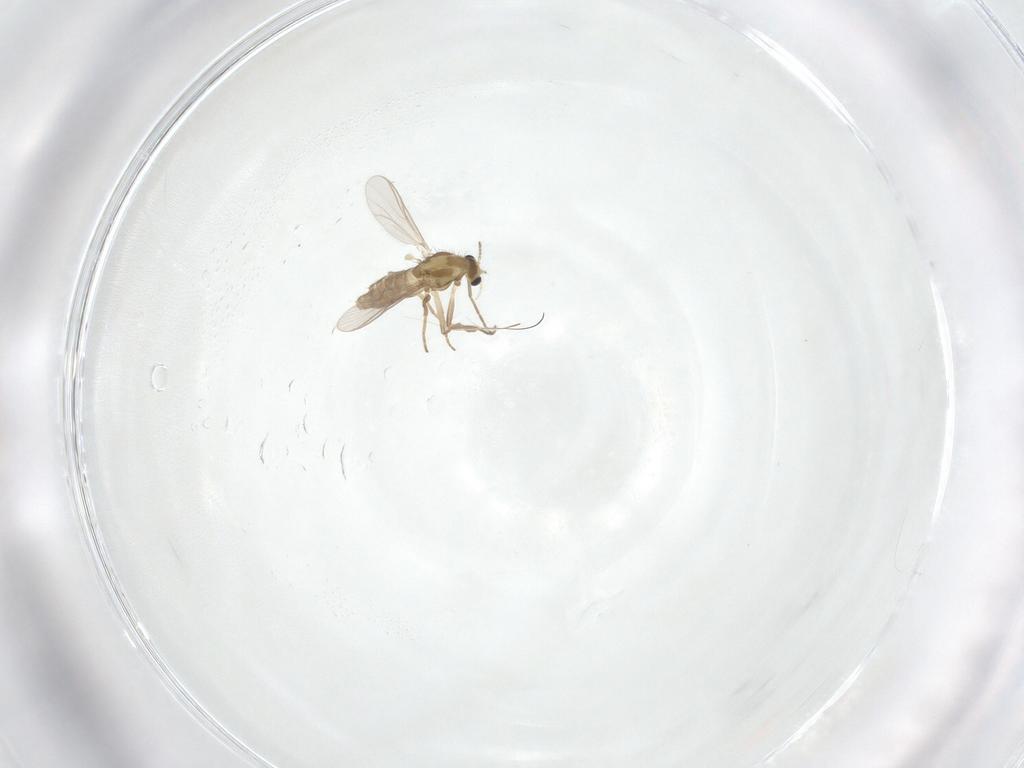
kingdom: Animalia
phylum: Arthropoda
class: Insecta
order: Diptera
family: Chironomidae
